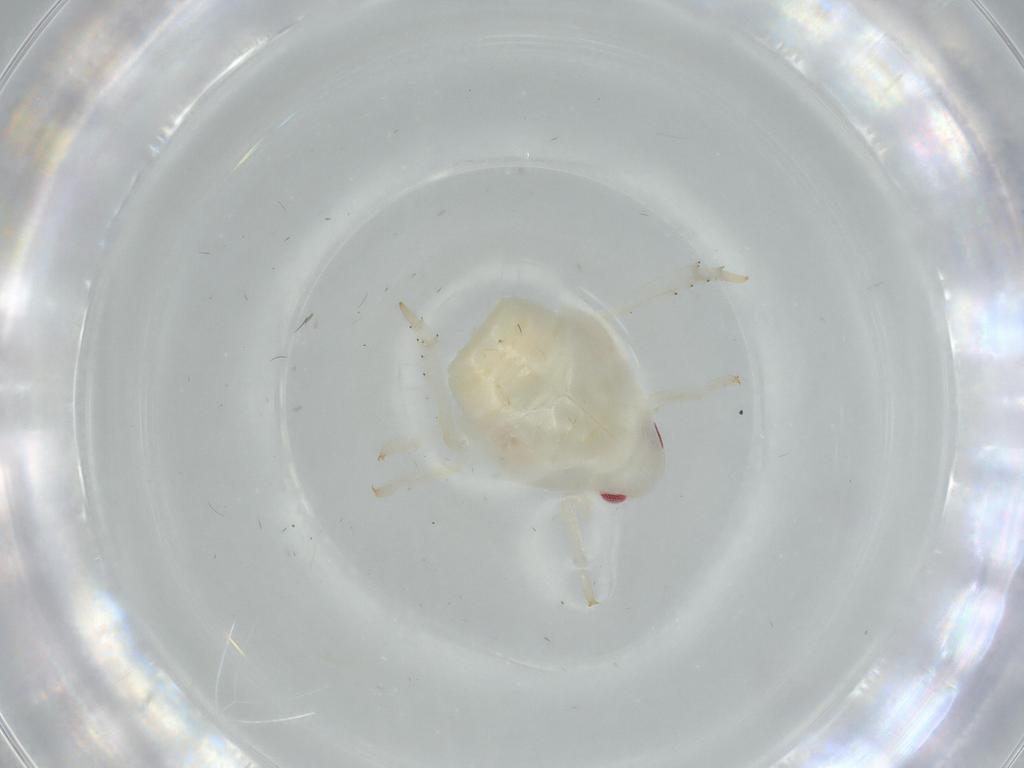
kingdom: Animalia
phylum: Arthropoda
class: Insecta
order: Hemiptera
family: Flatidae
